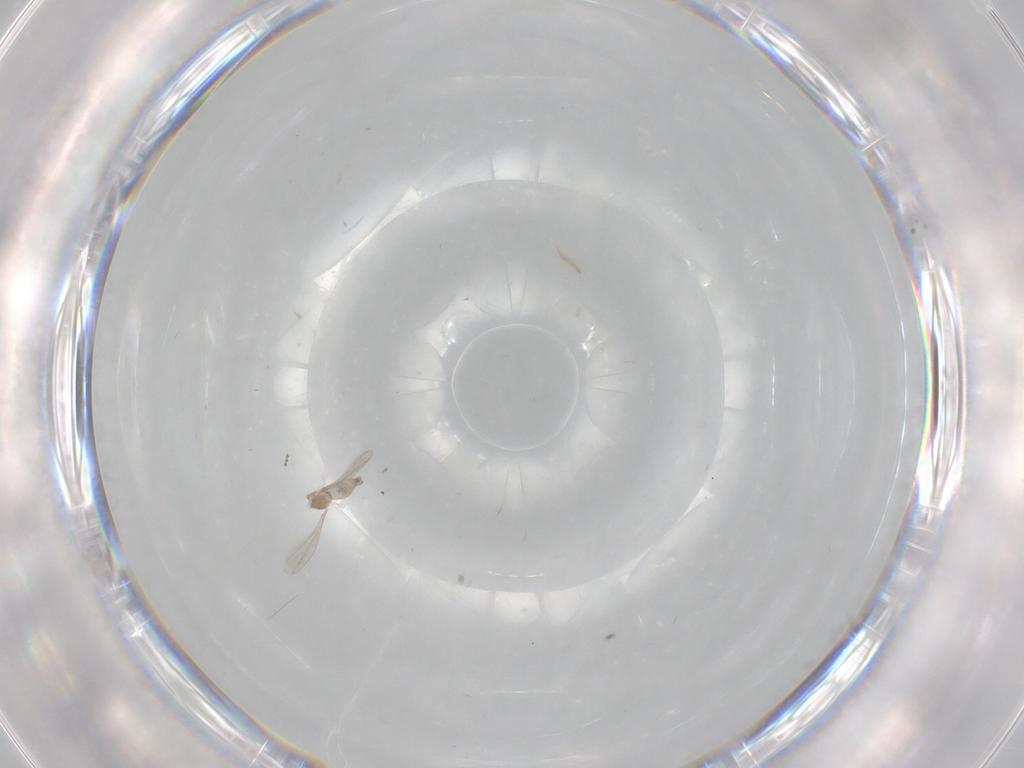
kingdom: Animalia
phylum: Arthropoda
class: Insecta
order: Diptera
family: Cecidomyiidae
